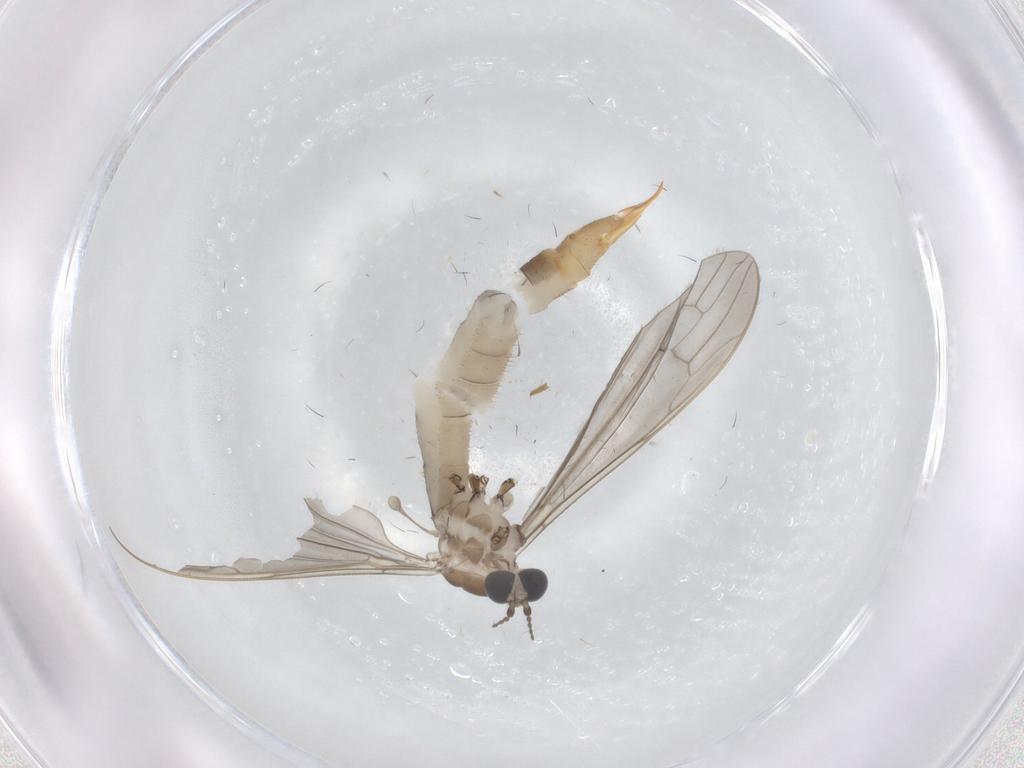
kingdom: Animalia
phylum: Arthropoda
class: Insecta
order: Diptera
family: Limoniidae
